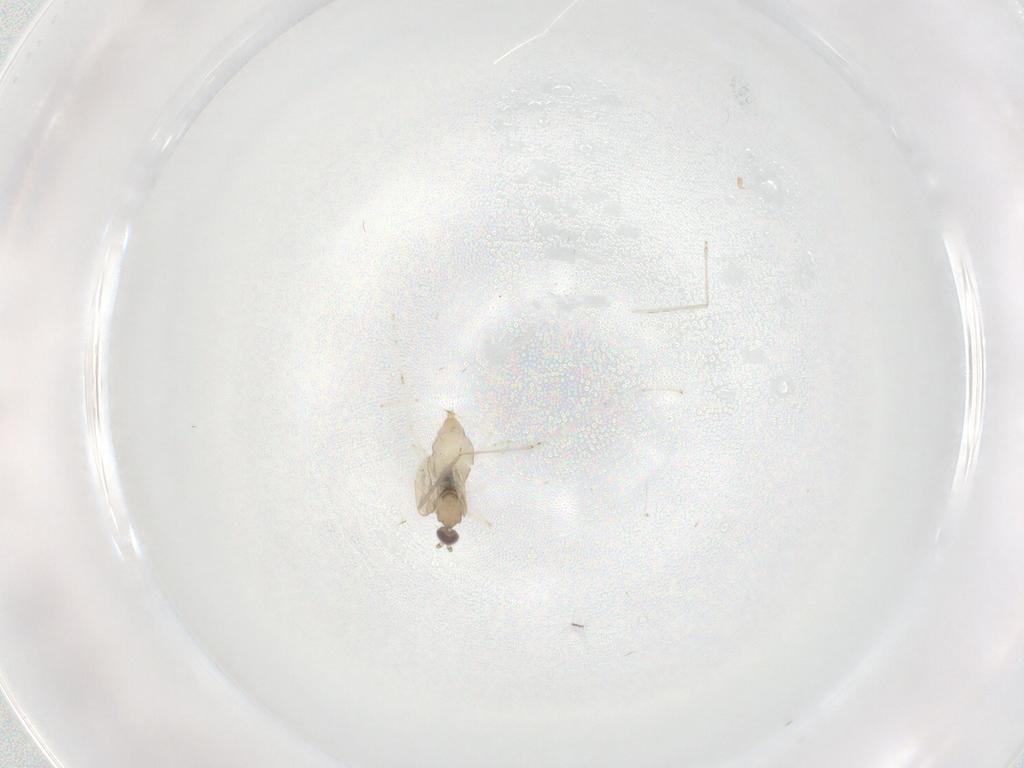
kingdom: Animalia
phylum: Arthropoda
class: Insecta
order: Diptera
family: Cecidomyiidae
